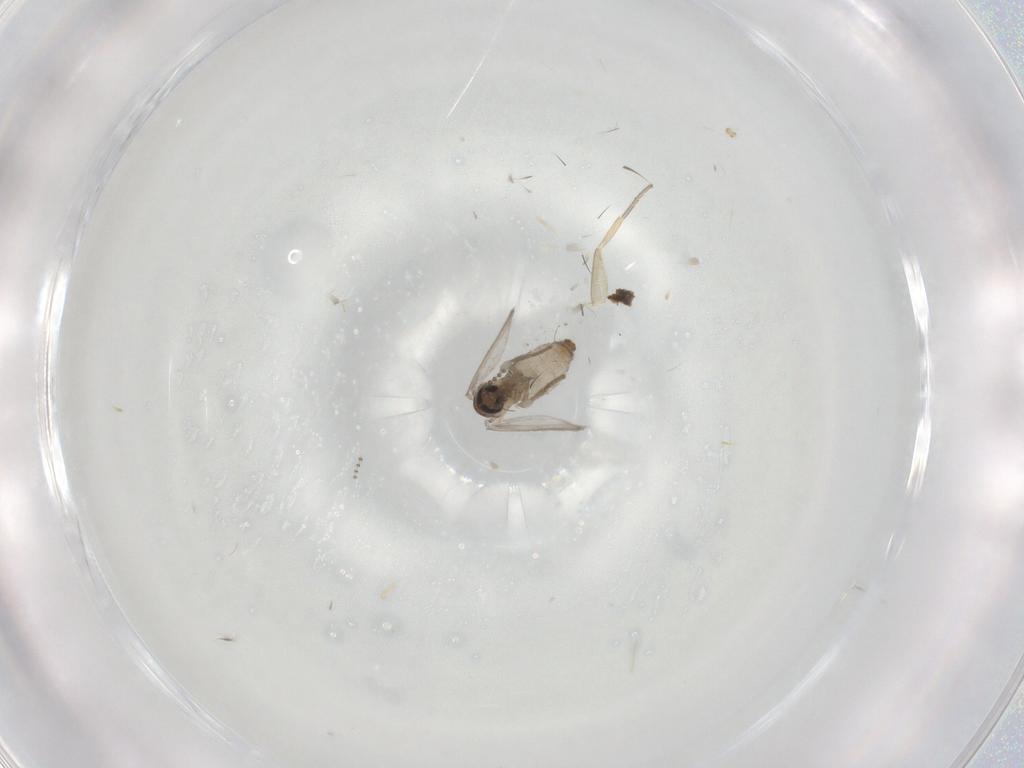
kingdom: Animalia
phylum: Arthropoda
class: Insecta
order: Diptera
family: Psychodidae
